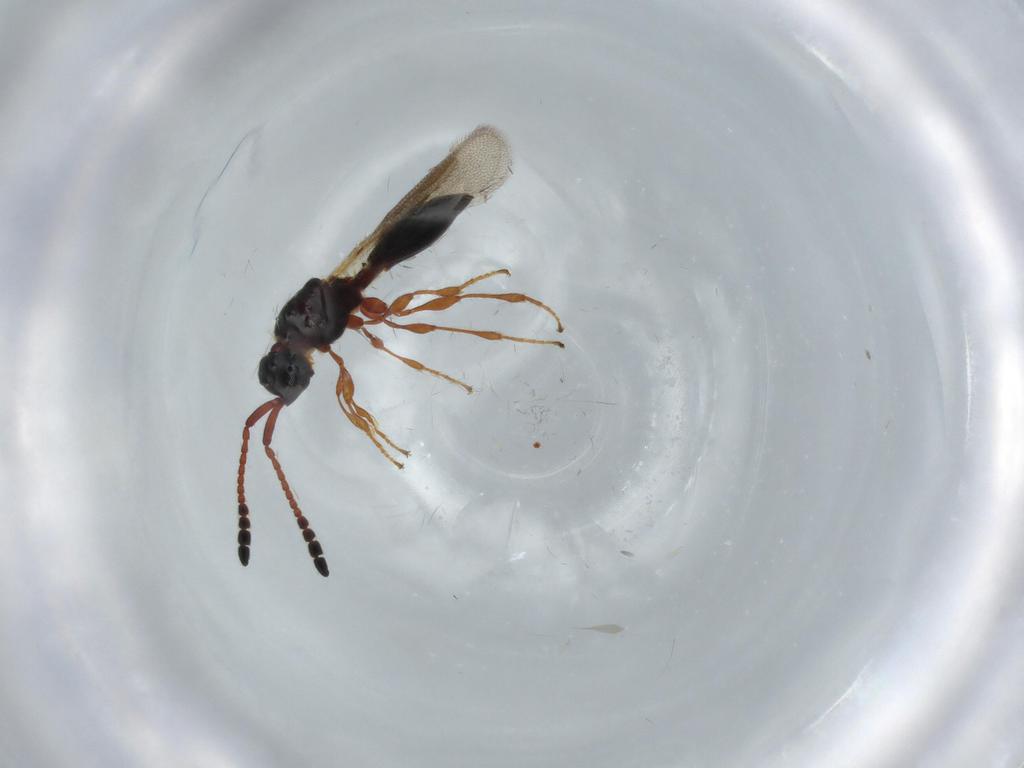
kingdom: Animalia
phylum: Arthropoda
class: Insecta
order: Hymenoptera
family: Diapriidae
